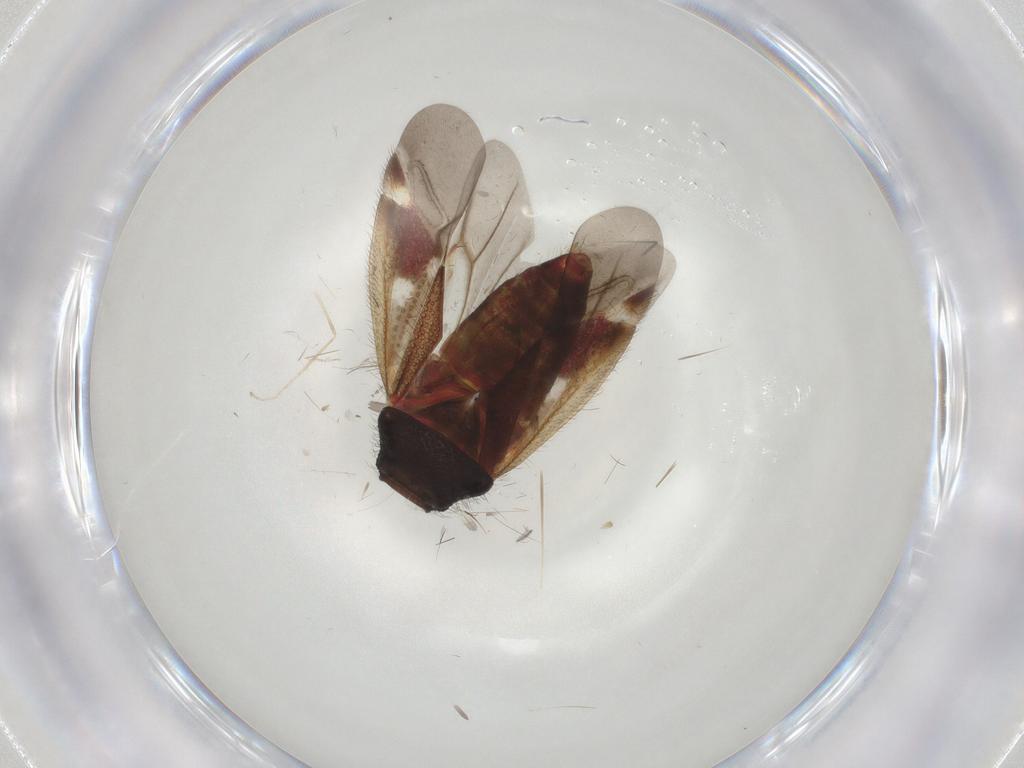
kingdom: Animalia
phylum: Arthropoda
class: Insecta
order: Hemiptera
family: Miridae
